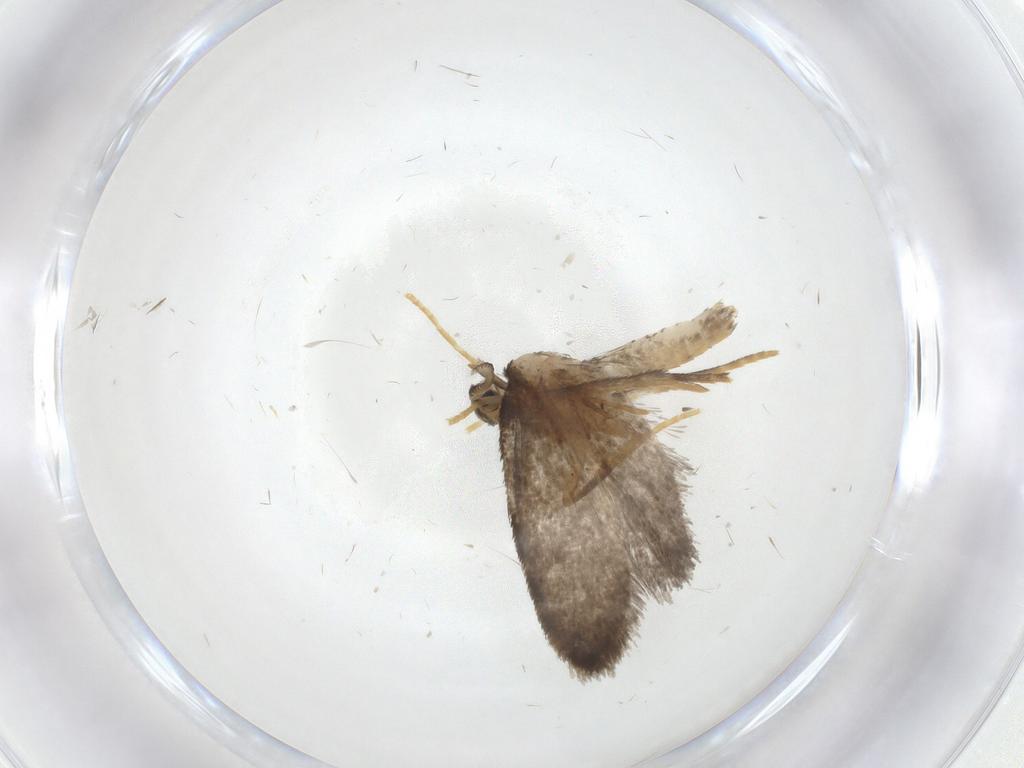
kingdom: Animalia
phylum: Arthropoda
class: Insecta
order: Lepidoptera
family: Psychidae
